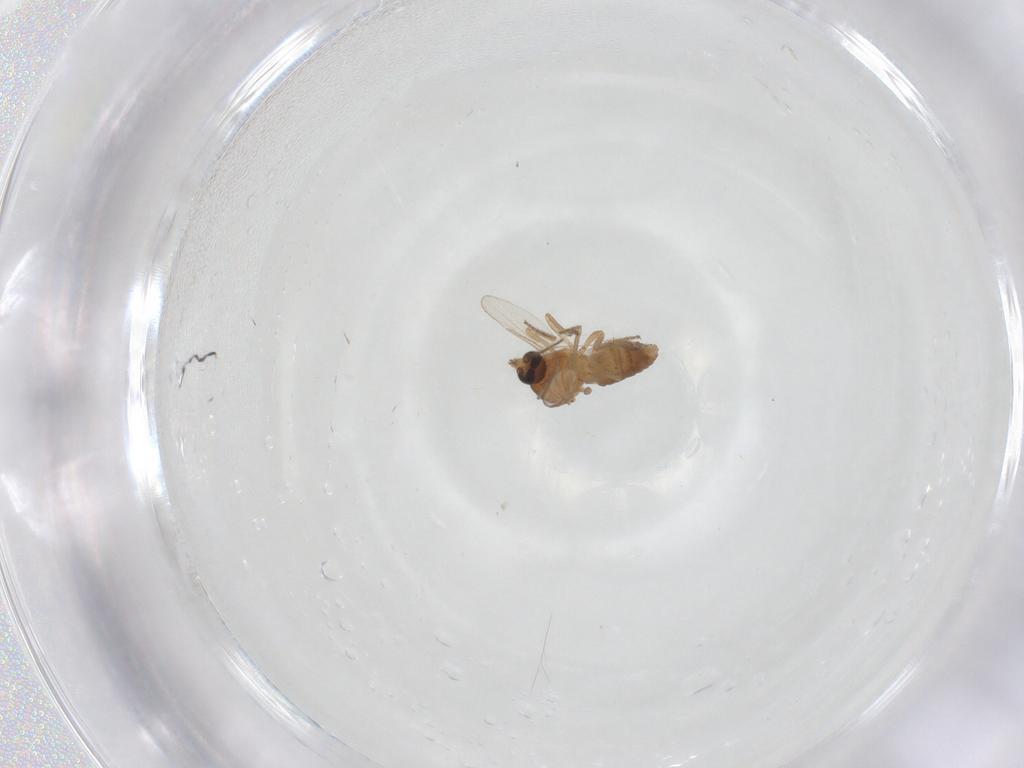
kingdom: Animalia
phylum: Arthropoda
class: Insecta
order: Diptera
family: Ceratopogonidae
